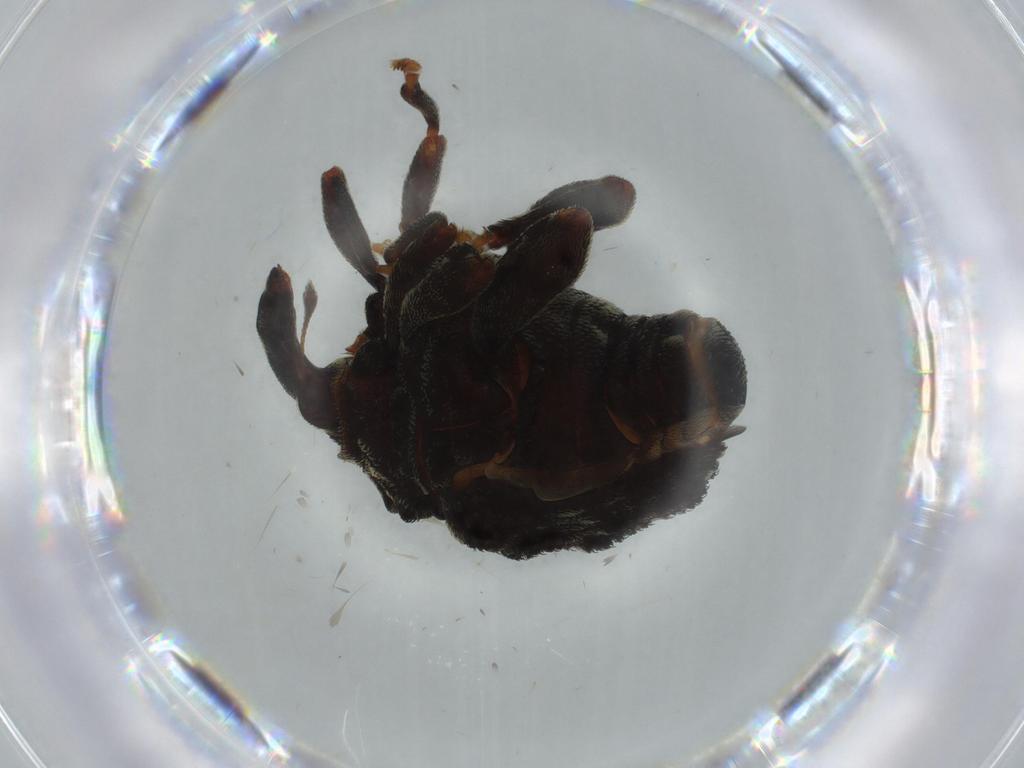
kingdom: Animalia
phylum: Arthropoda
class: Insecta
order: Coleoptera
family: Curculionidae
